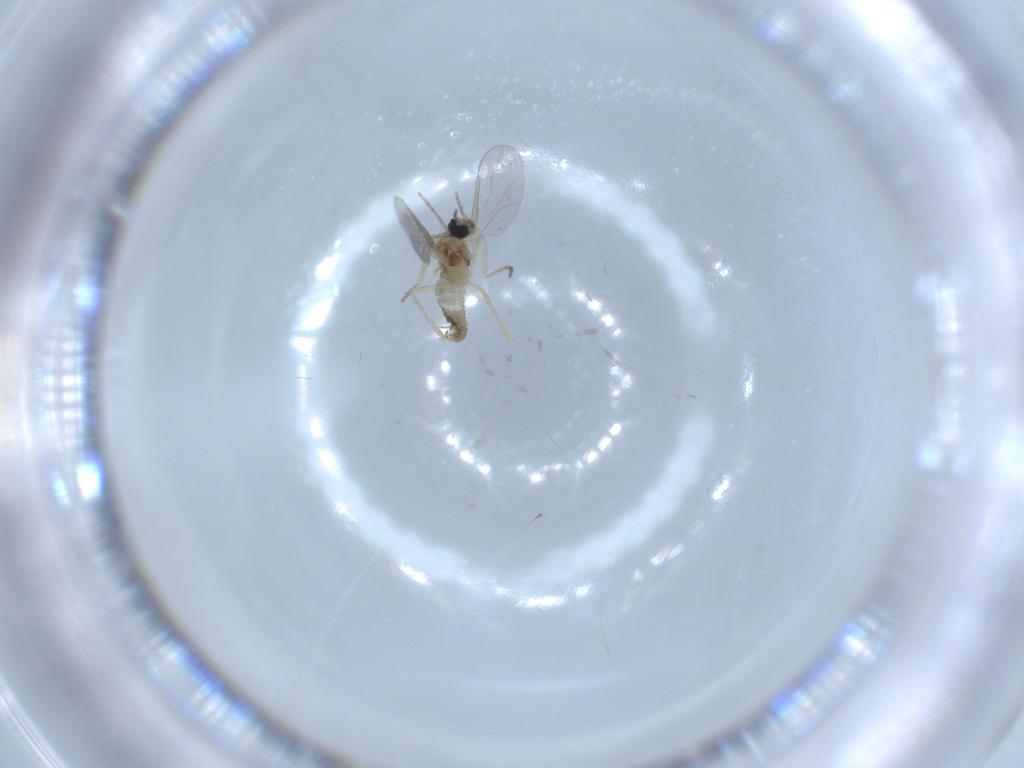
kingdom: Animalia
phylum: Arthropoda
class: Insecta
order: Diptera
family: Cecidomyiidae
